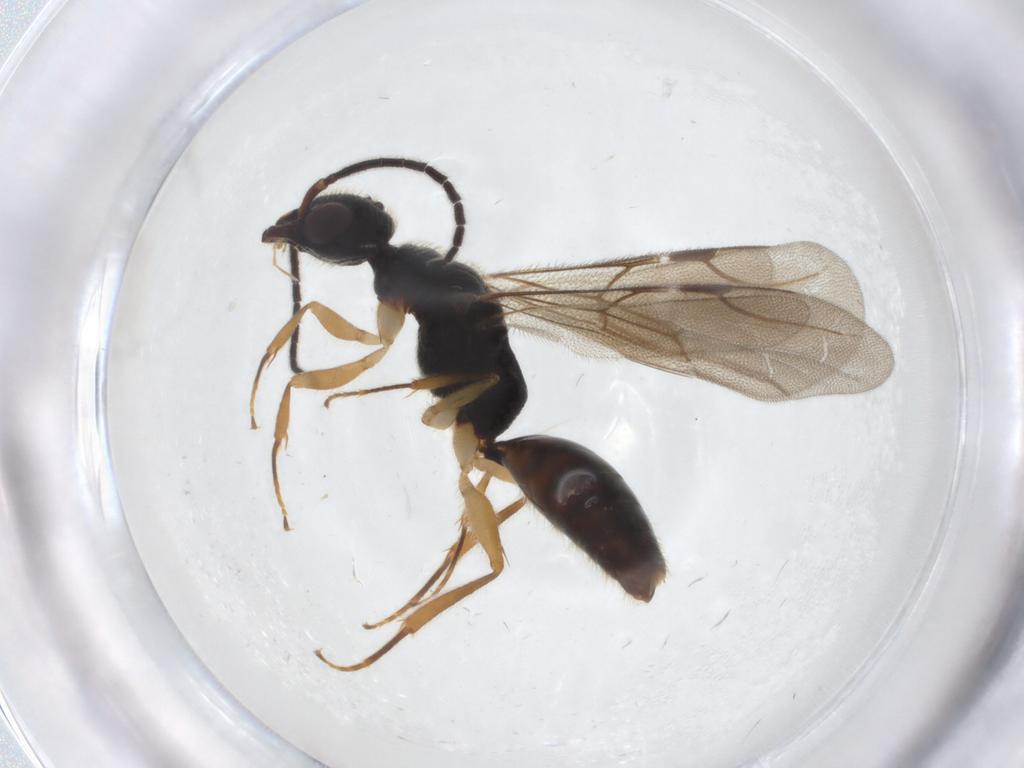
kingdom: Animalia
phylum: Arthropoda
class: Insecta
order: Hymenoptera
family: Bethylidae
